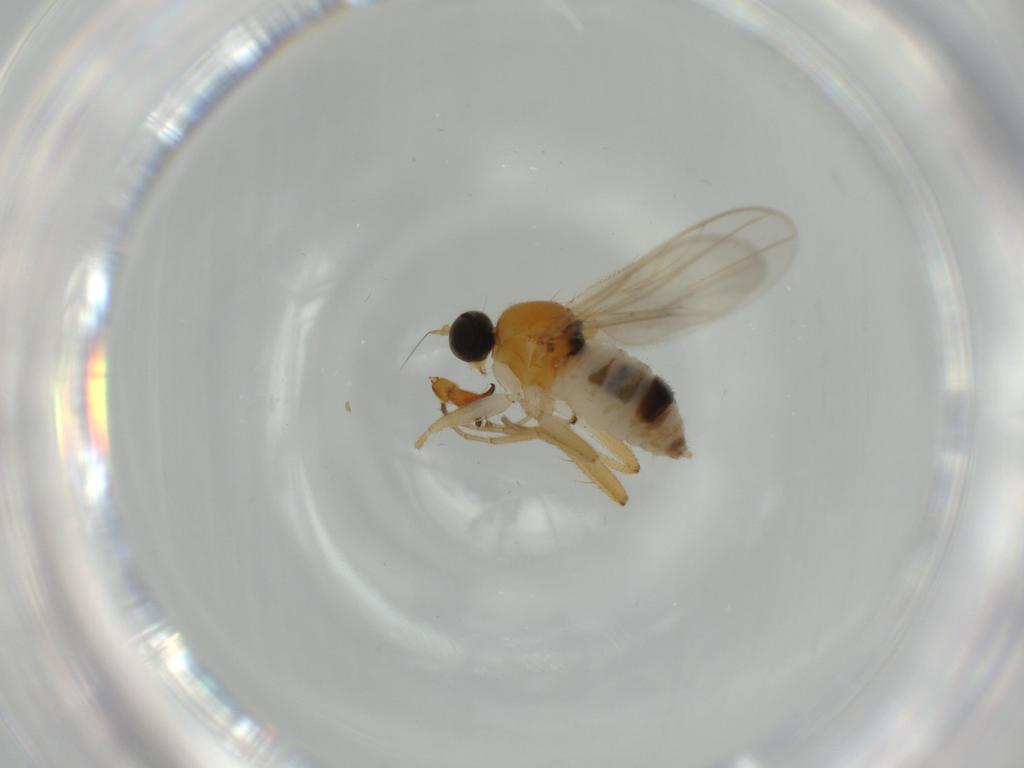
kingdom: Animalia
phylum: Arthropoda
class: Insecta
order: Diptera
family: Hybotidae
